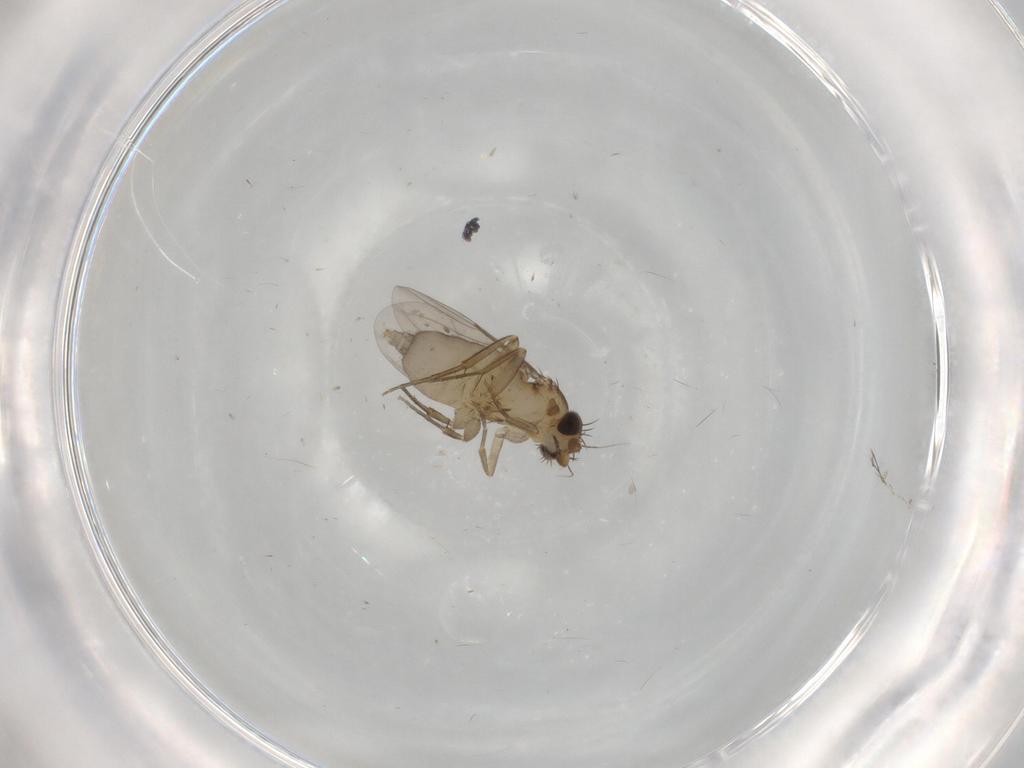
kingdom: Animalia
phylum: Arthropoda
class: Insecta
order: Diptera
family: Phoridae
